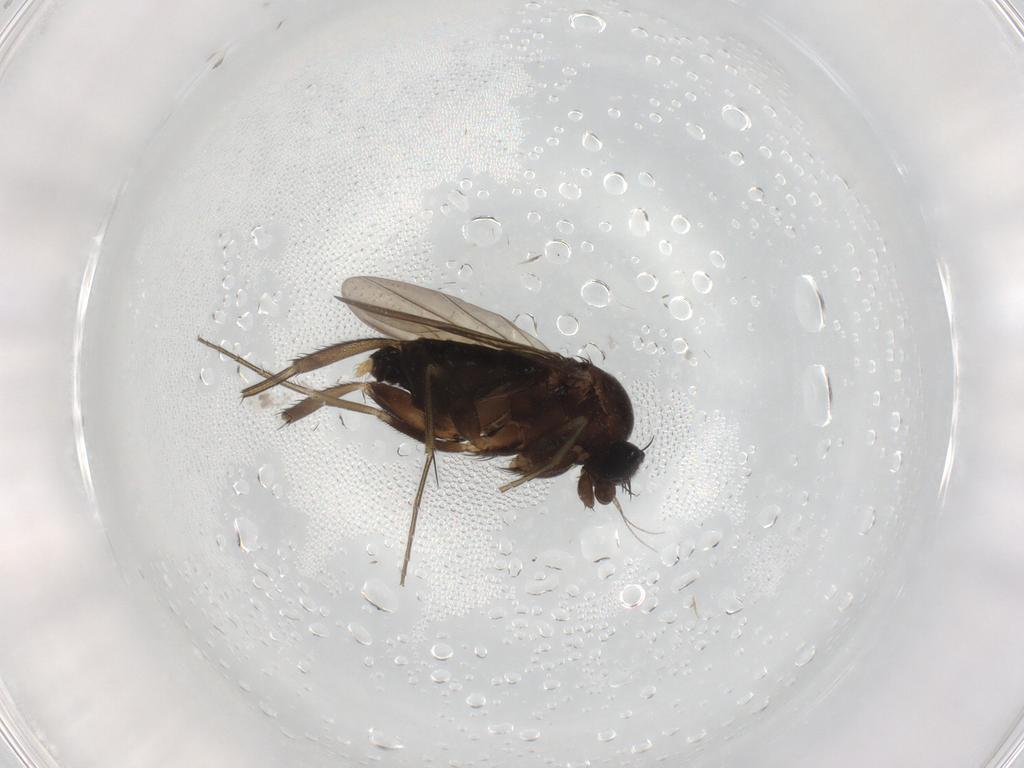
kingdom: Animalia
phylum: Arthropoda
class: Insecta
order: Diptera
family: Phoridae
